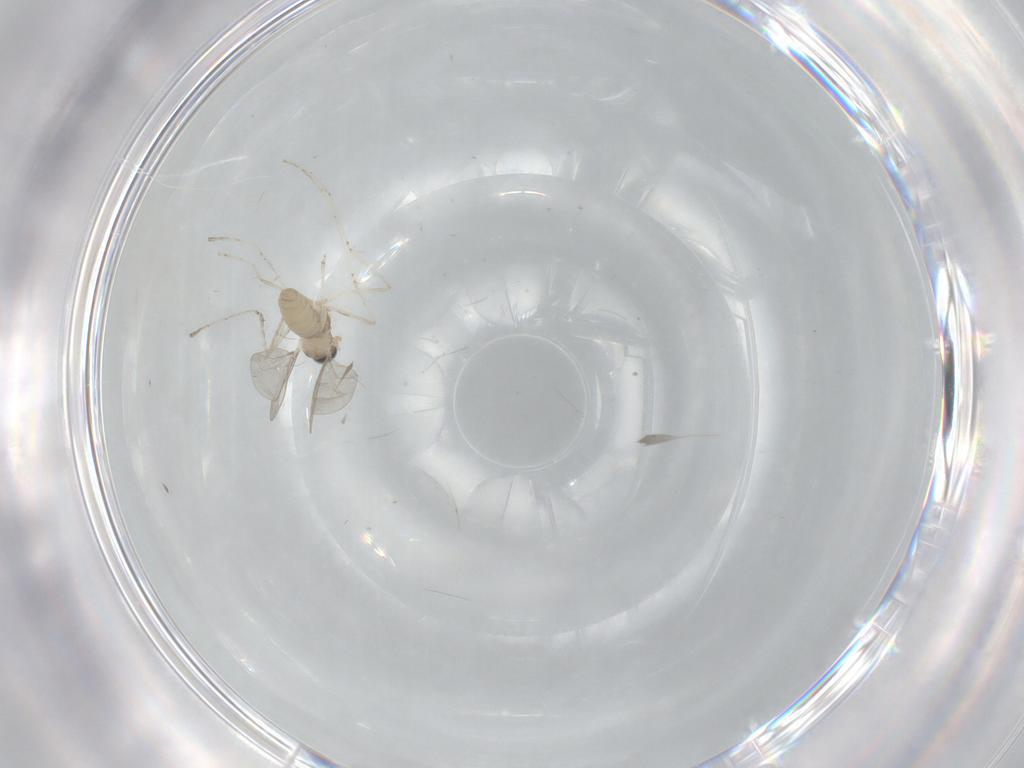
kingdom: Animalia
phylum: Arthropoda
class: Insecta
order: Diptera
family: Cecidomyiidae
